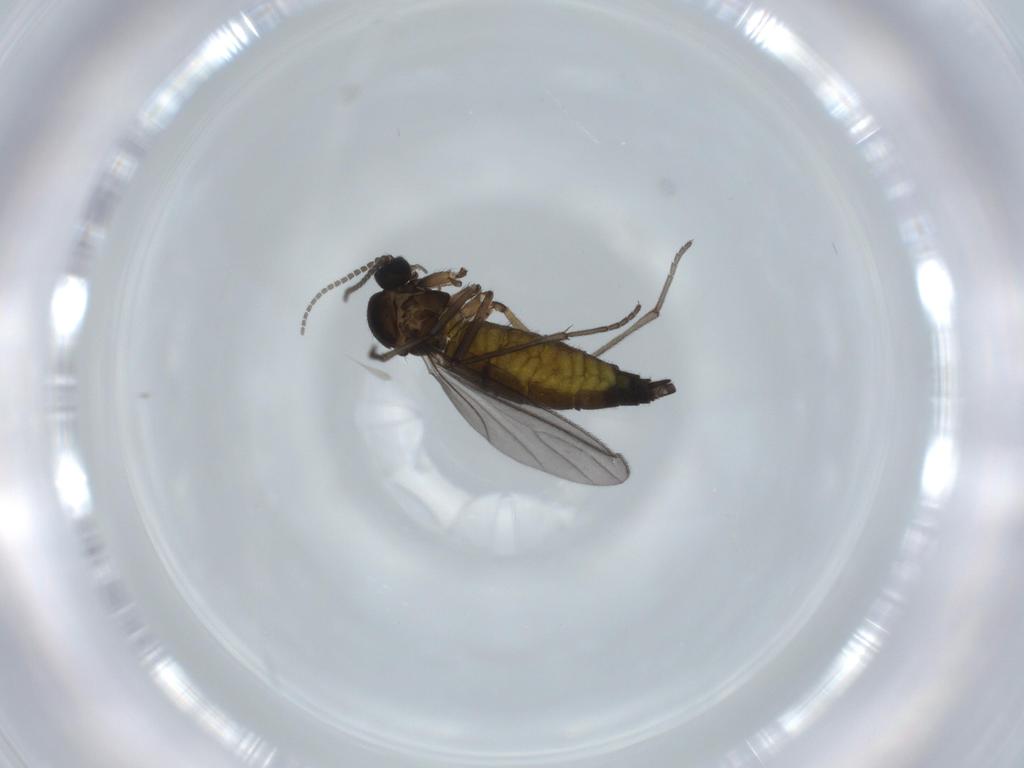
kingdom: Animalia
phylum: Arthropoda
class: Insecta
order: Diptera
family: Sciaridae
